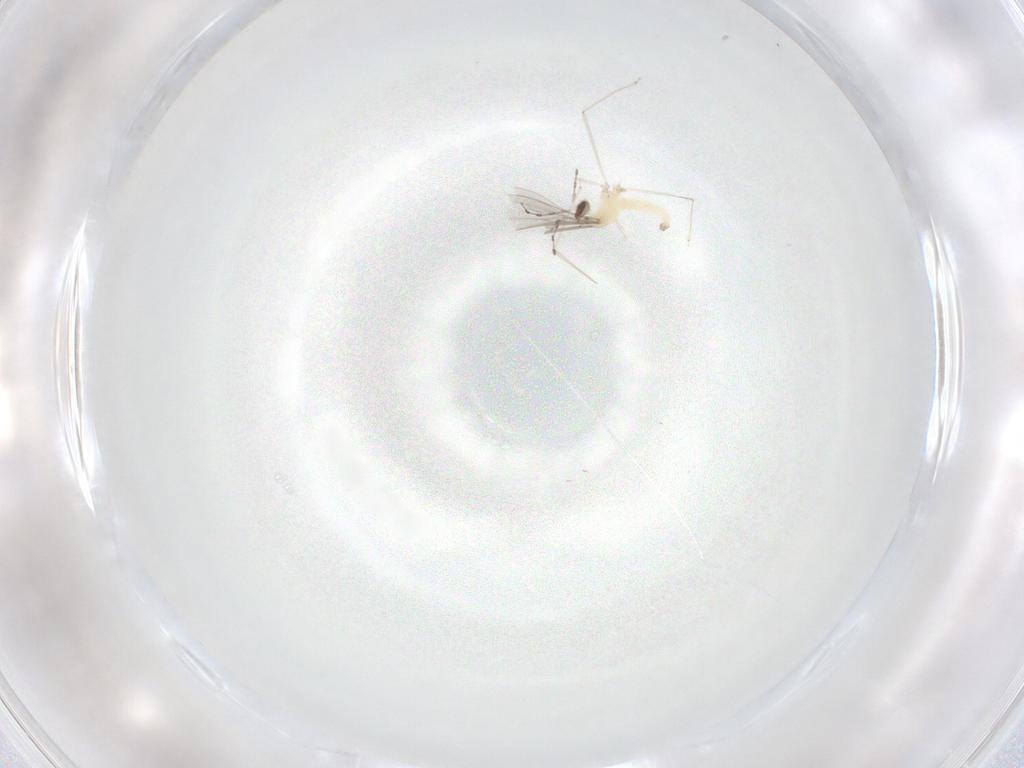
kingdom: Animalia
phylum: Arthropoda
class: Insecta
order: Diptera
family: Cecidomyiidae
